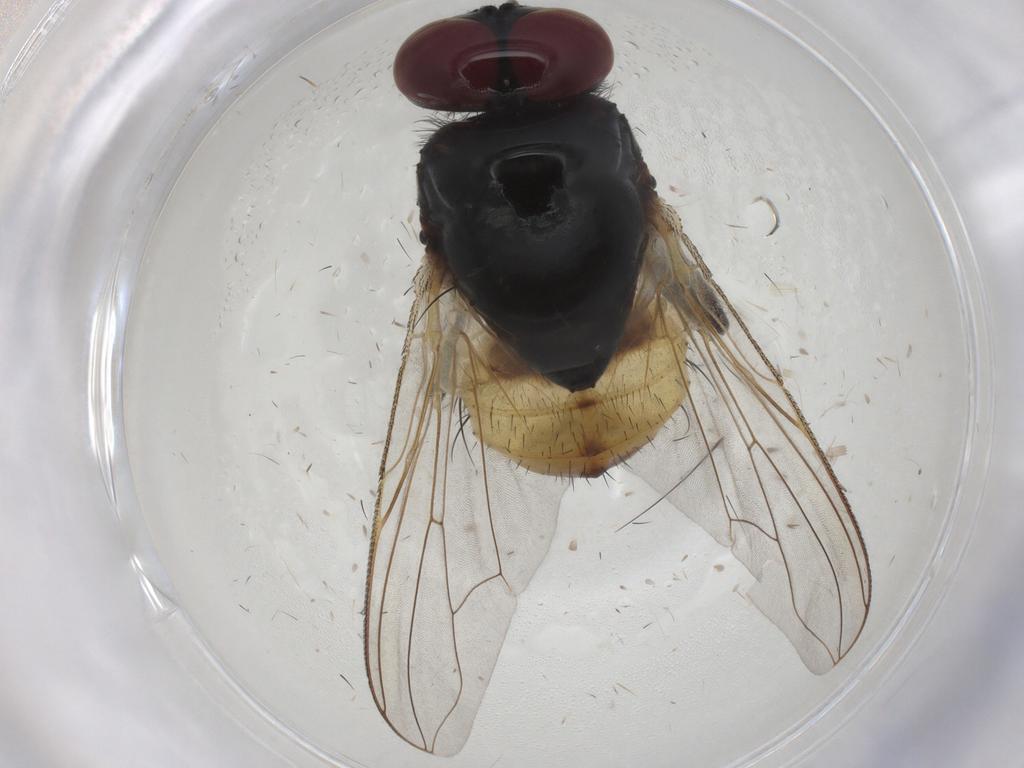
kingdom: Animalia
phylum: Arthropoda
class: Insecta
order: Diptera
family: Muscidae
